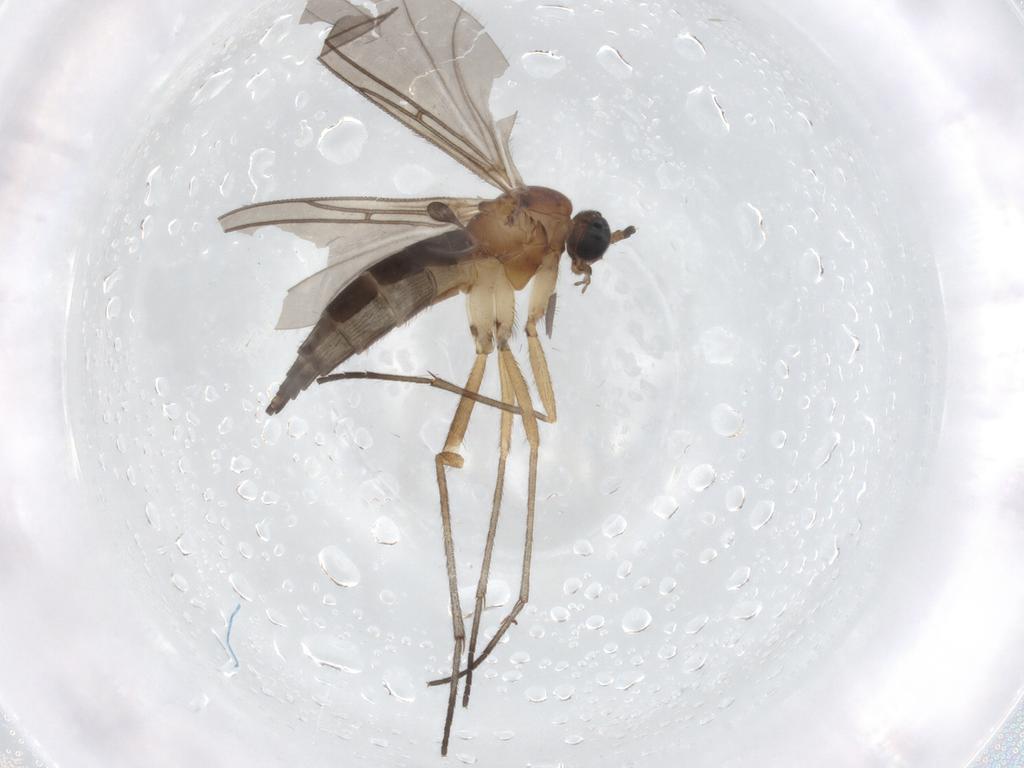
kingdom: Animalia
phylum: Arthropoda
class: Insecta
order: Diptera
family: Sciaridae
